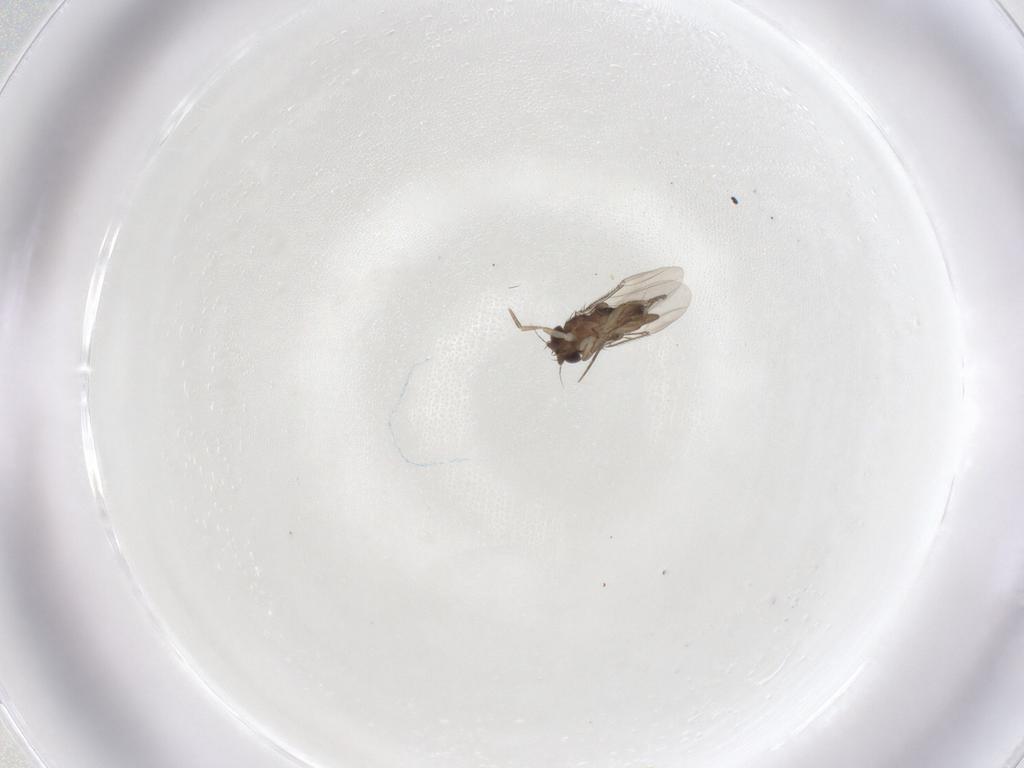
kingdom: Animalia
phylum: Arthropoda
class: Insecta
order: Diptera
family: Phoridae
